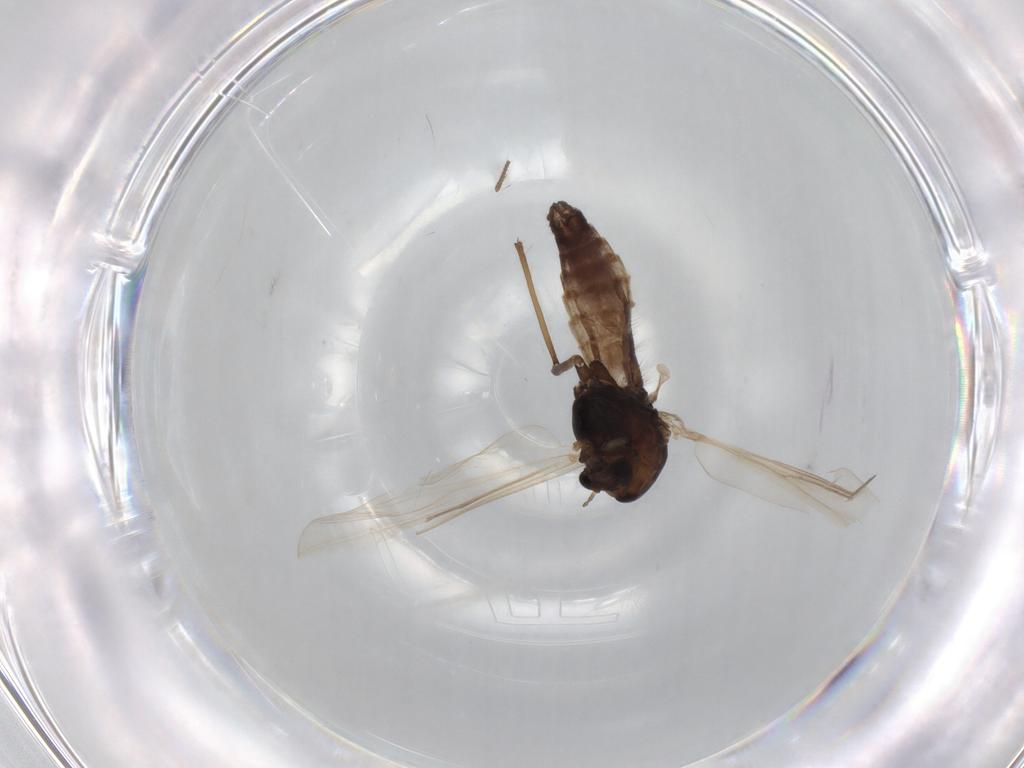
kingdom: Animalia
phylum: Arthropoda
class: Insecta
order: Diptera
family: Chironomidae
